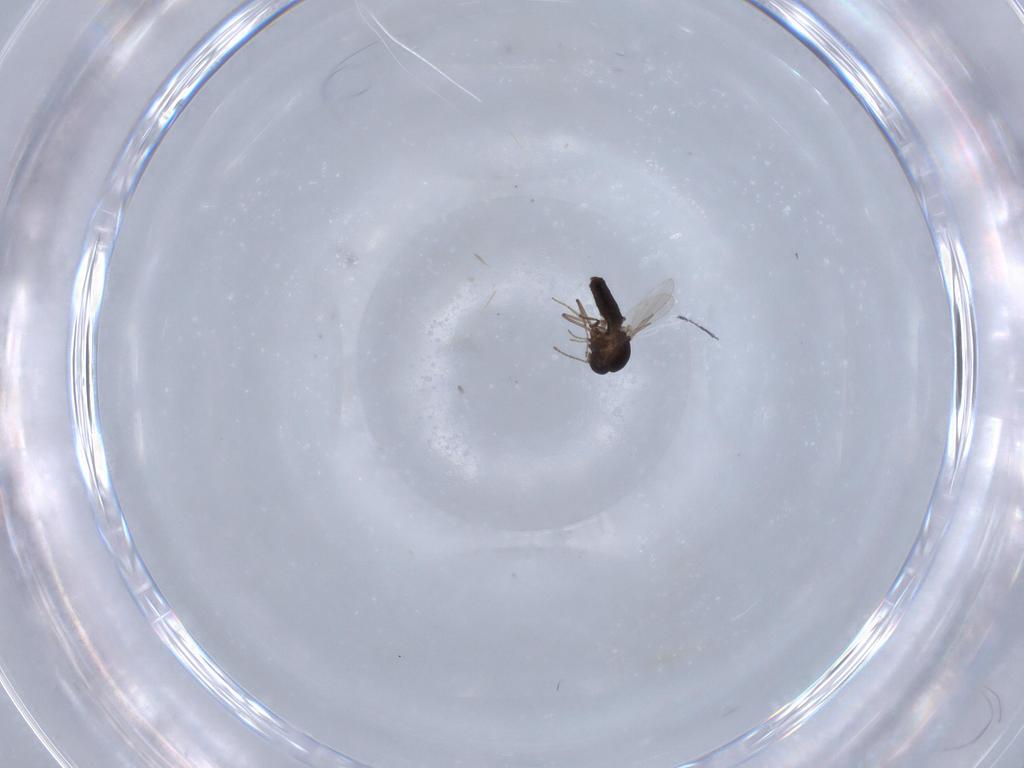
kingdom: Animalia
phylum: Arthropoda
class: Insecta
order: Diptera
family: Ceratopogonidae
